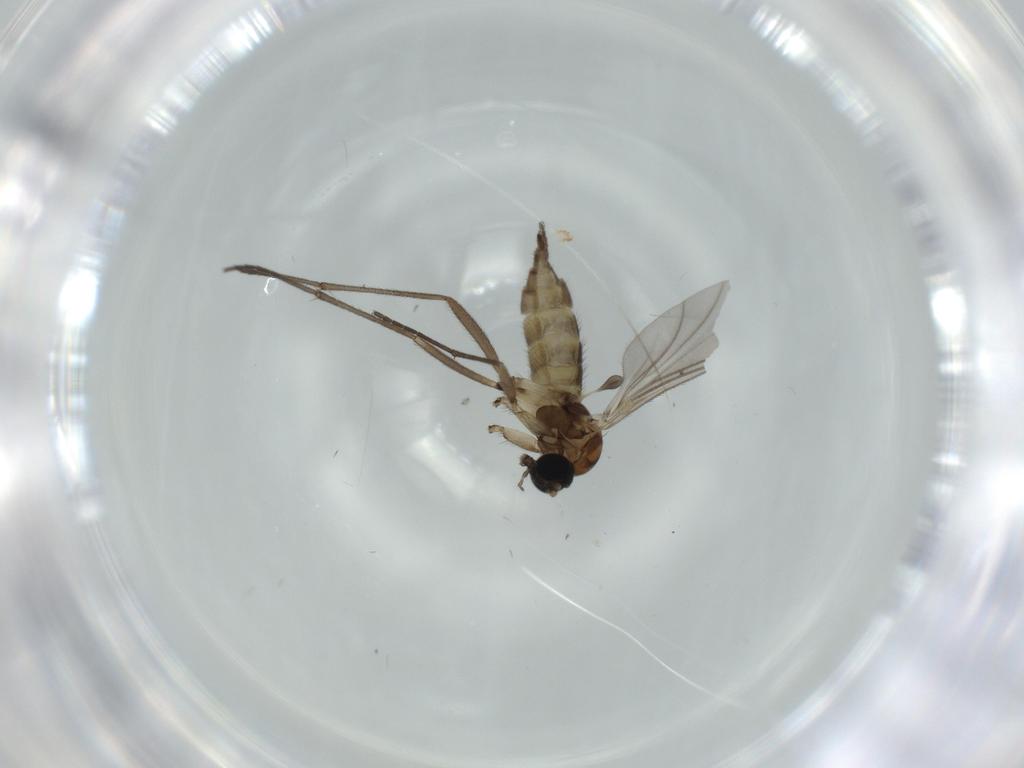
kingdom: Animalia
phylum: Arthropoda
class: Insecta
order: Diptera
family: Sciaridae
